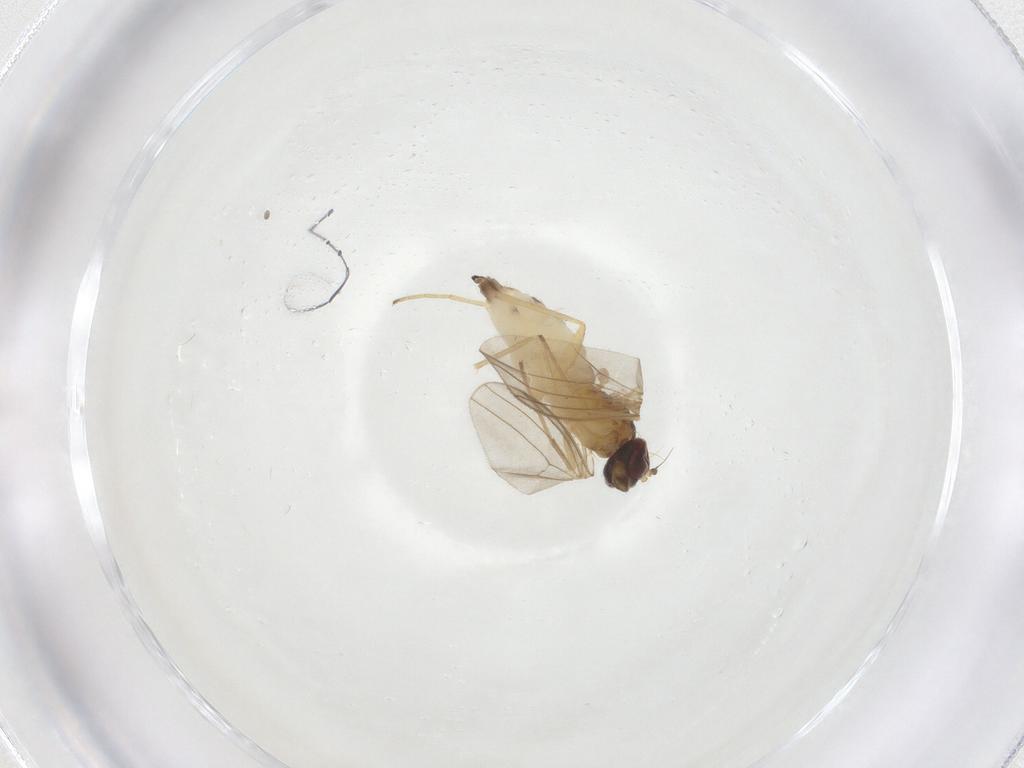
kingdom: Animalia
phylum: Arthropoda
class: Insecta
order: Diptera
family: Dolichopodidae
